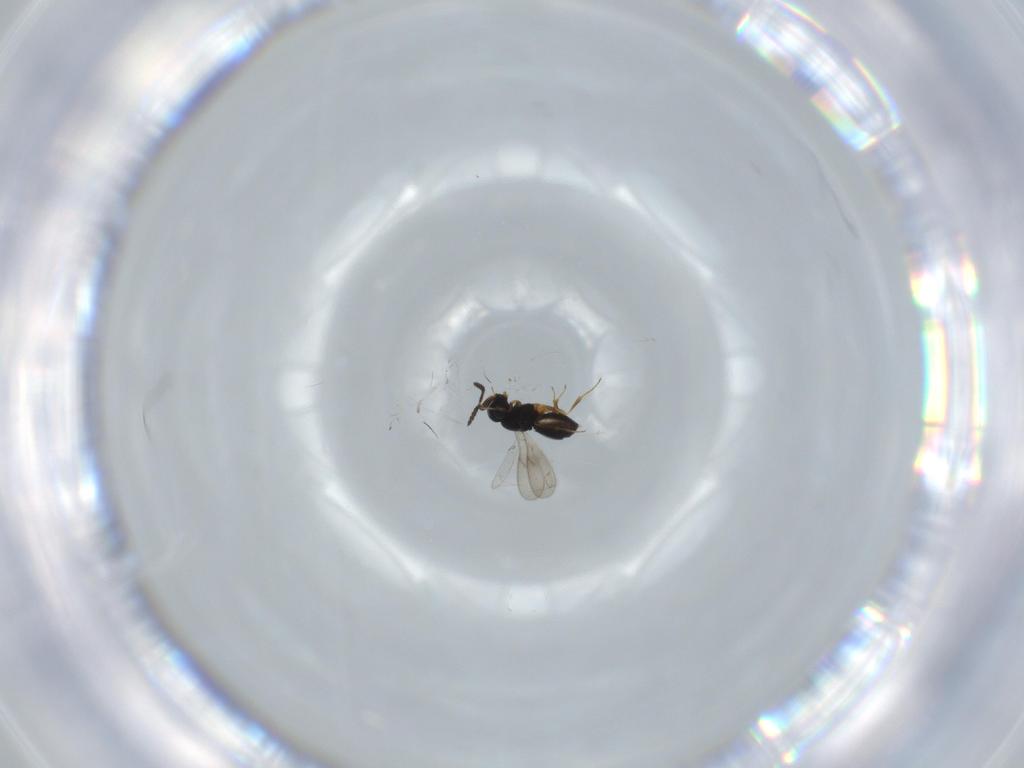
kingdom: Animalia
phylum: Arthropoda
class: Insecta
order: Hymenoptera
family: Scelionidae
